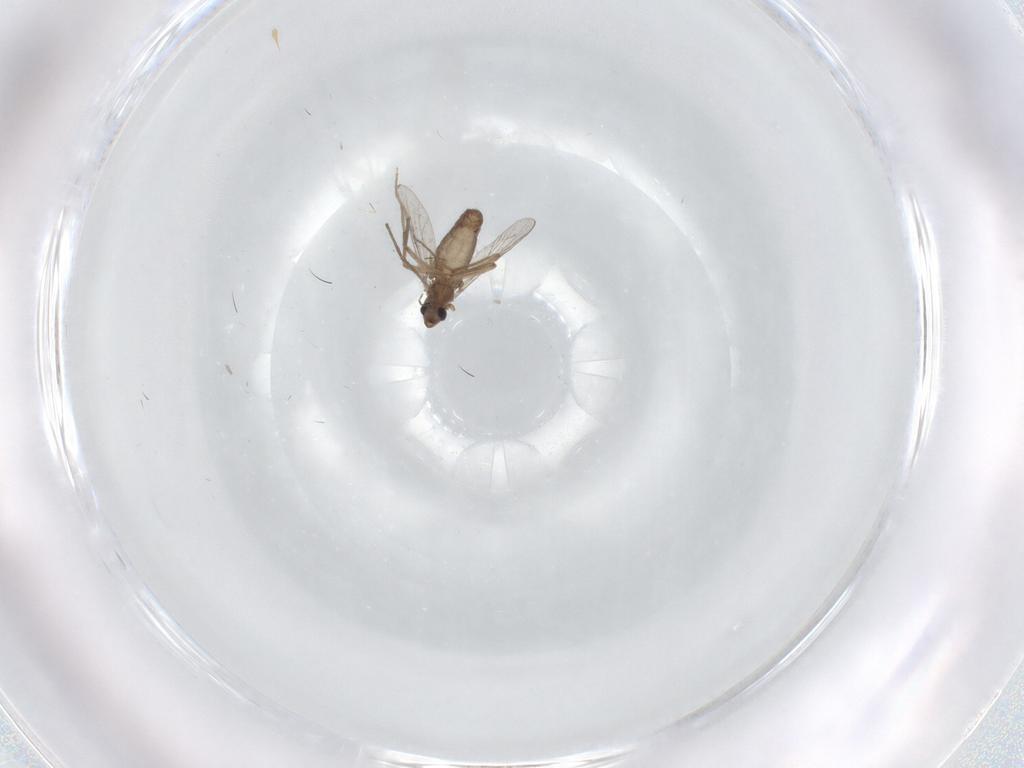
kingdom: Animalia
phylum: Arthropoda
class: Insecta
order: Diptera
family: Chironomidae
